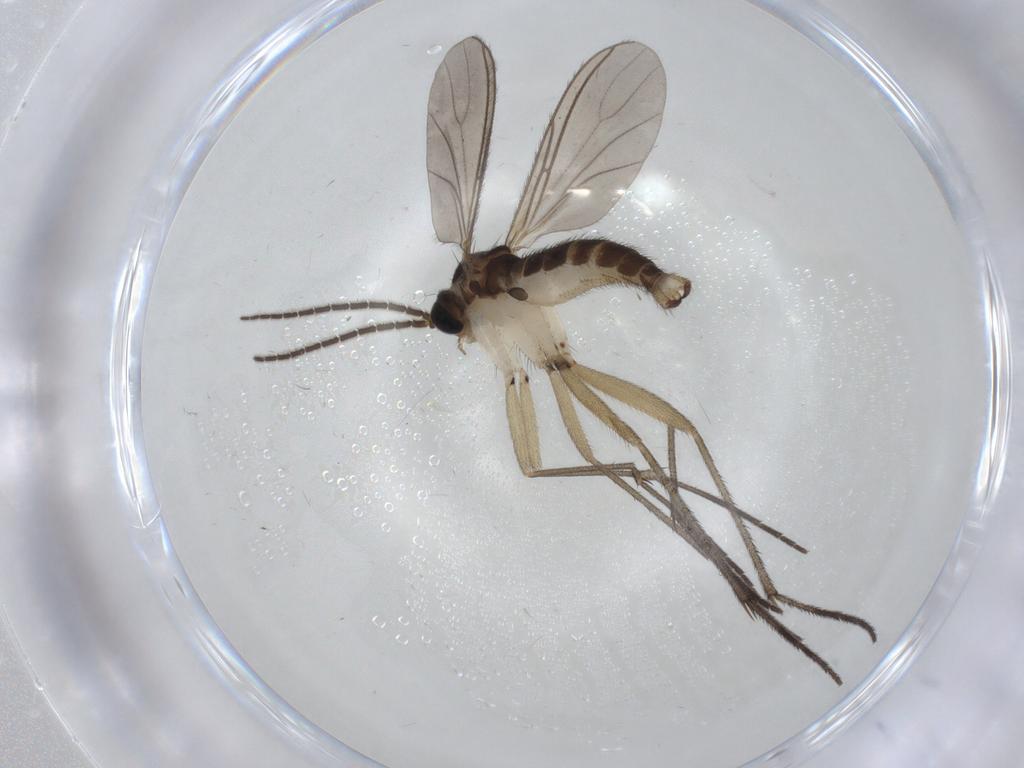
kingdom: Animalia
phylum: Arthropoda
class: Insecta
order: Diptera
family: Sciaridae
